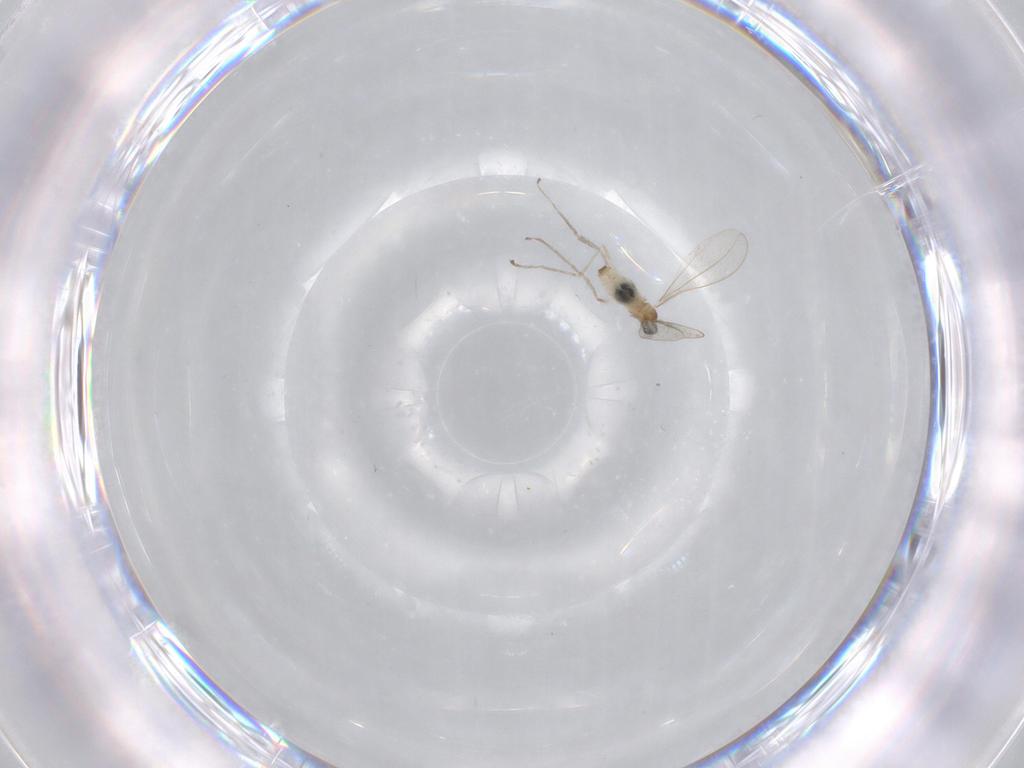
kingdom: Animalia
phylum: Arthropoda
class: Insecta
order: Diptera
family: Cecidomyiidae
